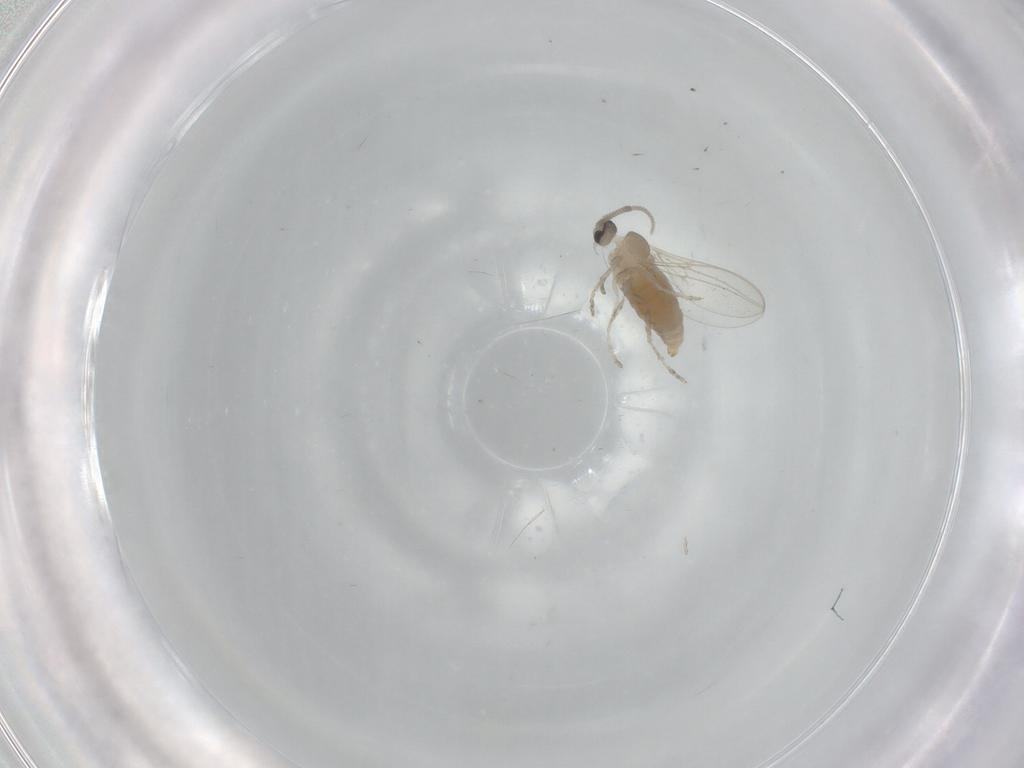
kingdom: Animalia
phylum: Arthropoda
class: Insecta
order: Diptera
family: Cecidomyiidae
